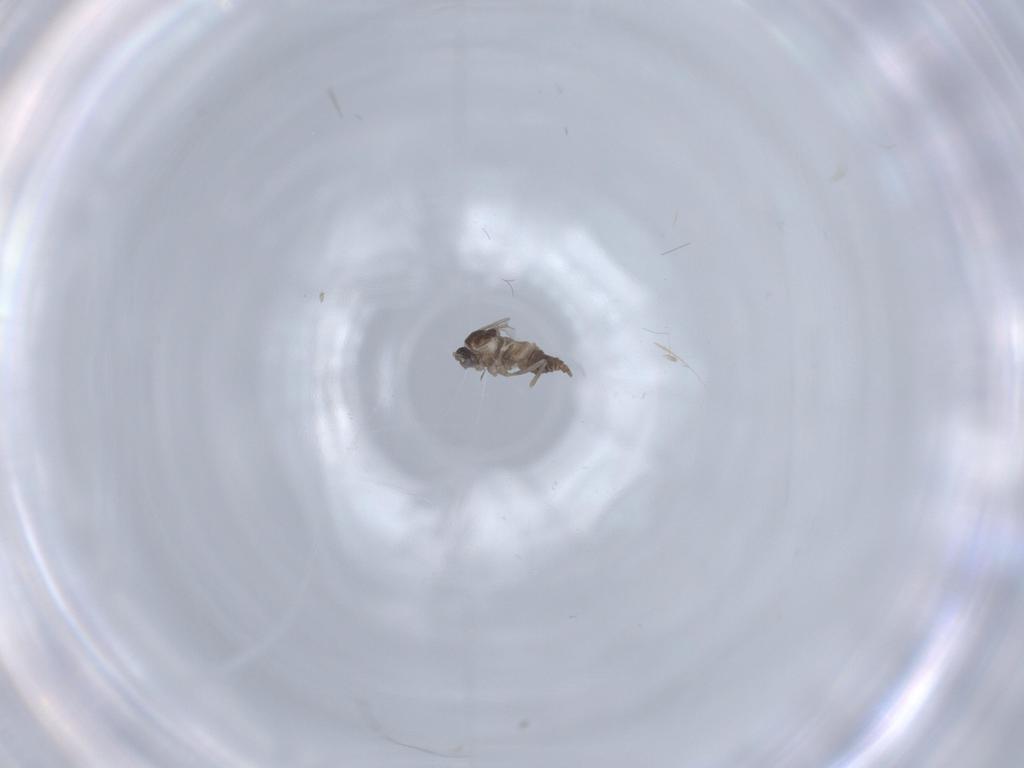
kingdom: Animalia
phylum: Arthropoda
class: Insecta
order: Diptera
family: Cecidomyiidae
